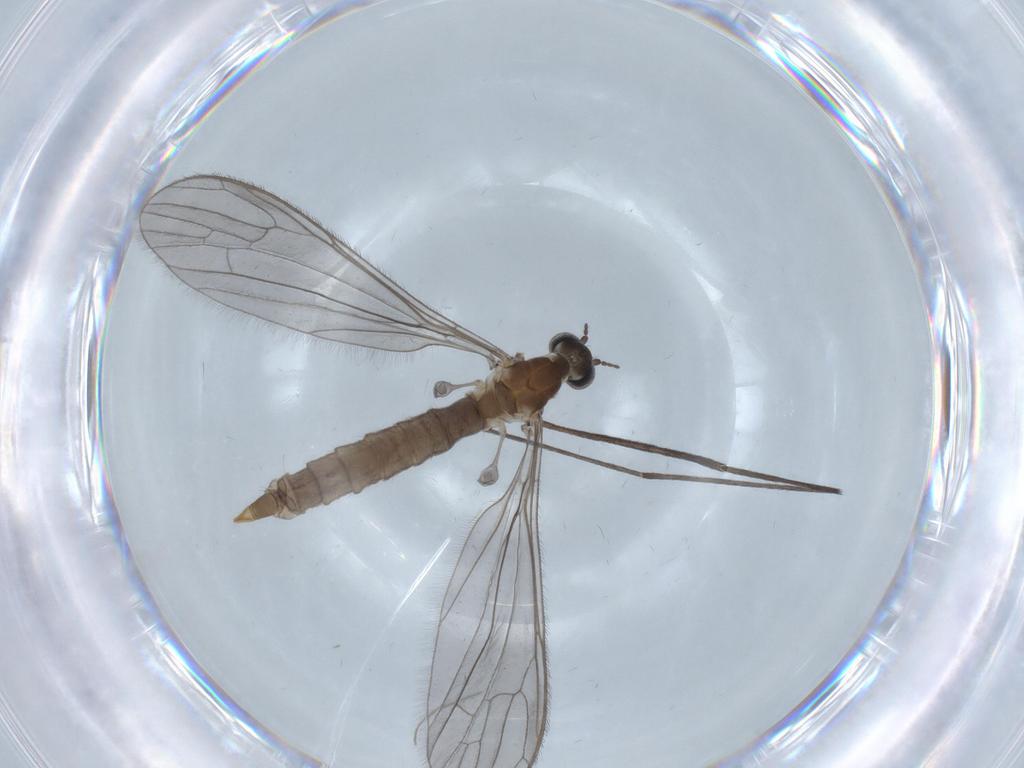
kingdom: Animalia
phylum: Arthropoda
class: Insecta
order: Diptera
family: Limoniidae
